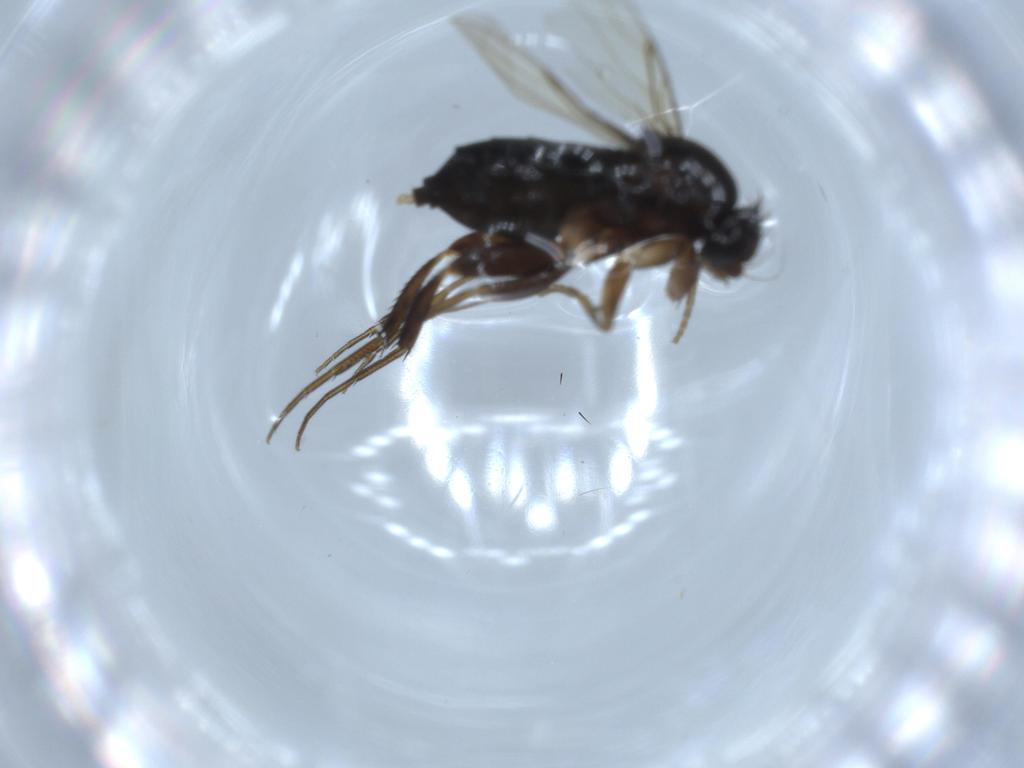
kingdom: Animalia
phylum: Arthropoda
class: Insecta
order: Diptera
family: Phoridae
